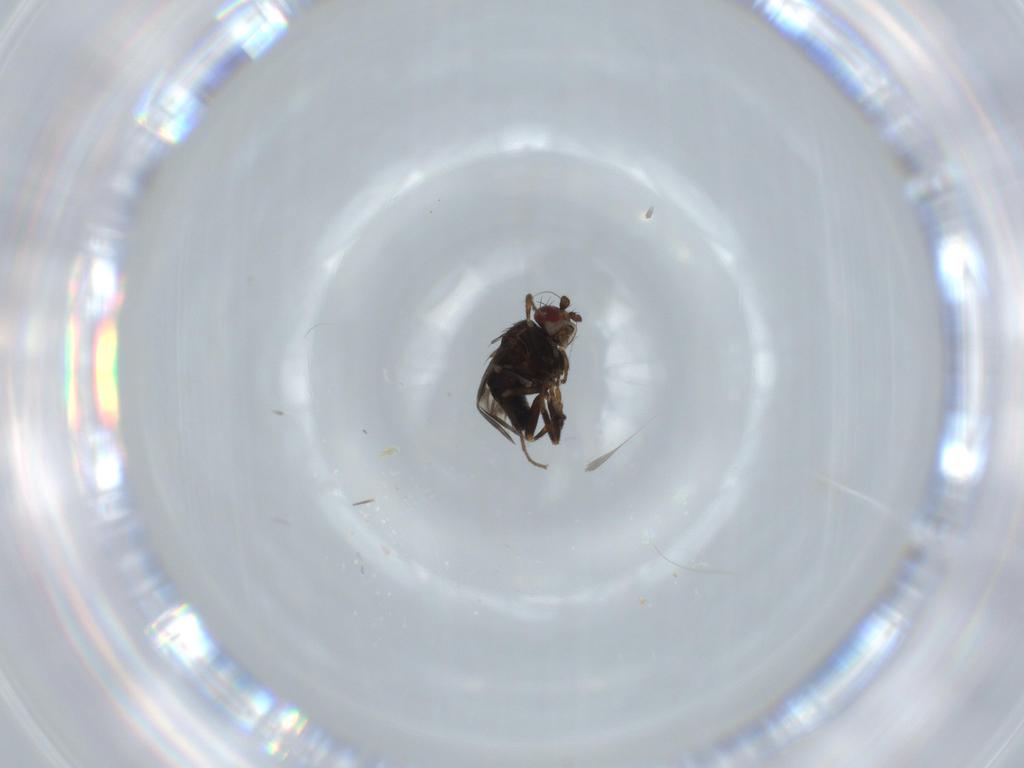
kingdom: Animalia
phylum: Arthropoda
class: Insecta
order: Diptera
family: Sphaeroceridae
